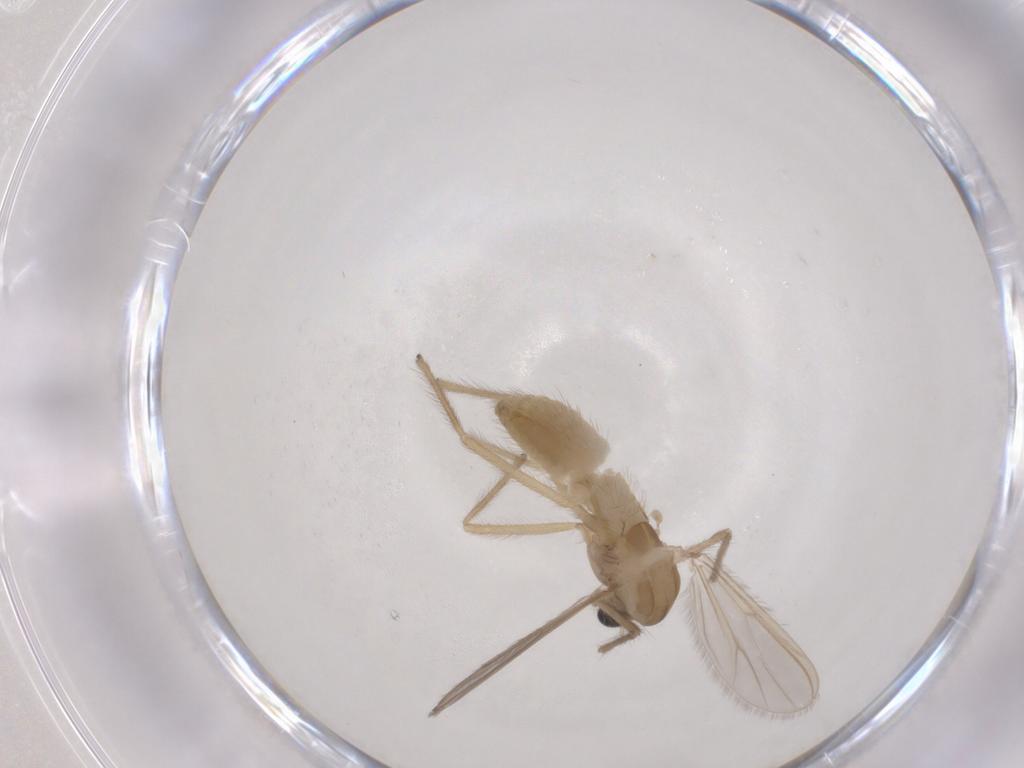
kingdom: Animalia
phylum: Arthropoda
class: Insecta
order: Diptera
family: Chironomidae
